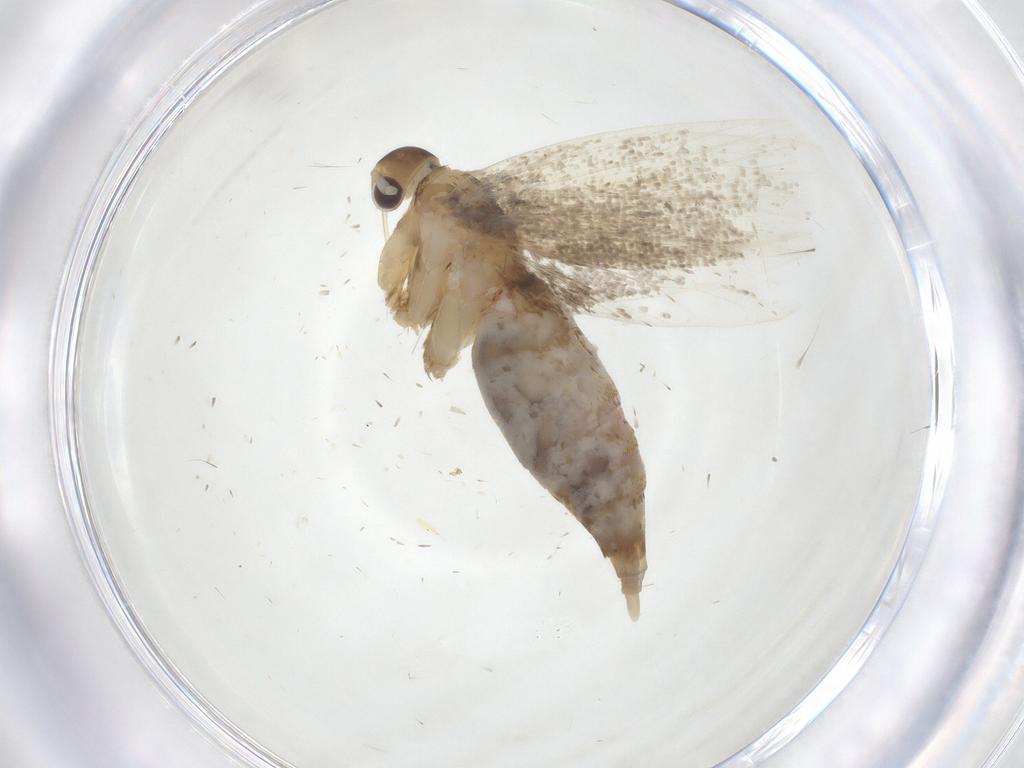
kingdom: Animalia
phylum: Arthropoda
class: Insecta
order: Lepidoptera
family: Lecithoceridae
